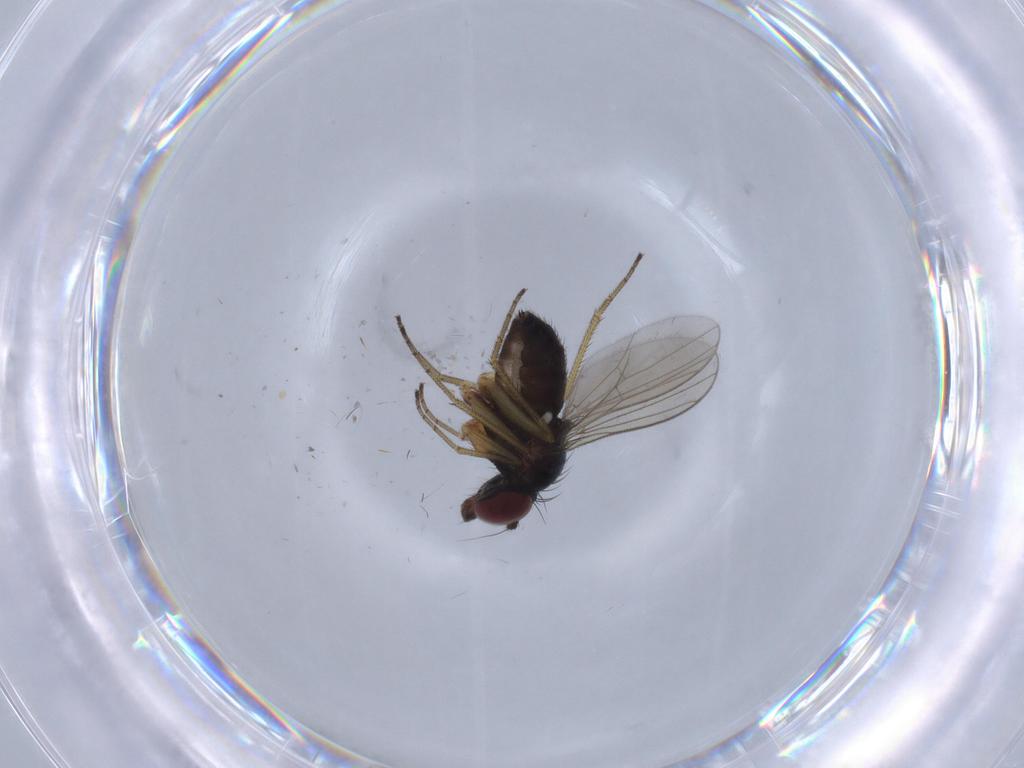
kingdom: Animalia
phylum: Arthropoda
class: Insecta
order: Diptera
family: Dolichopodidae
